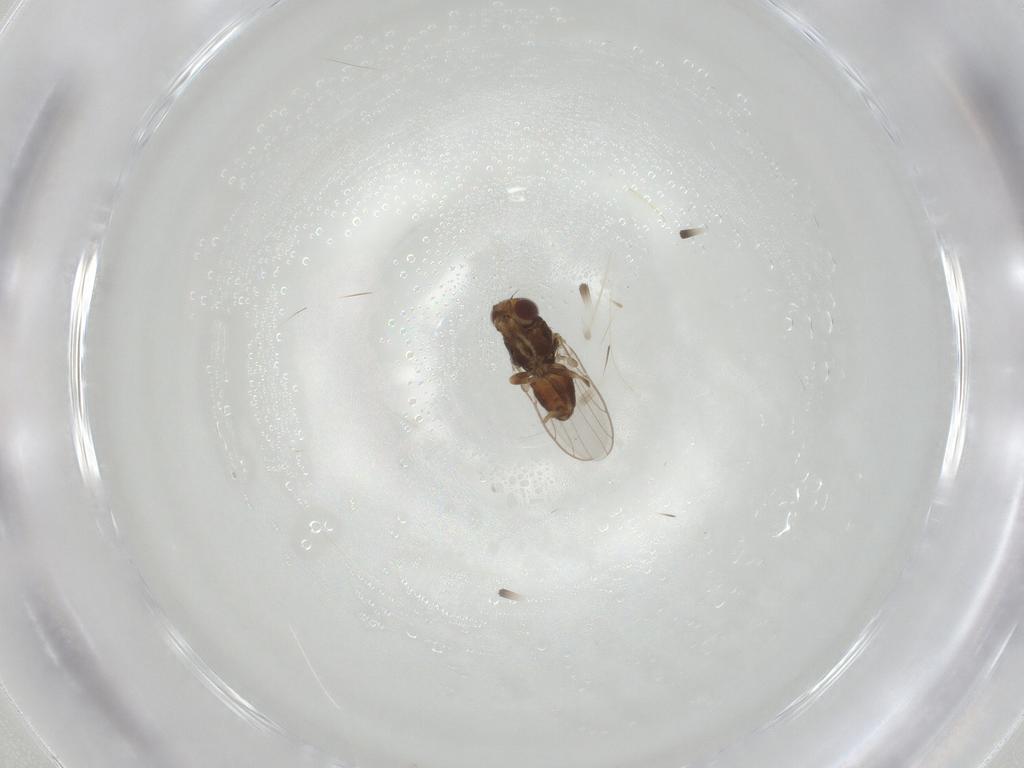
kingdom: Animalia
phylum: Arthropoda
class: Insecta
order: Diptera
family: Chloropidae
